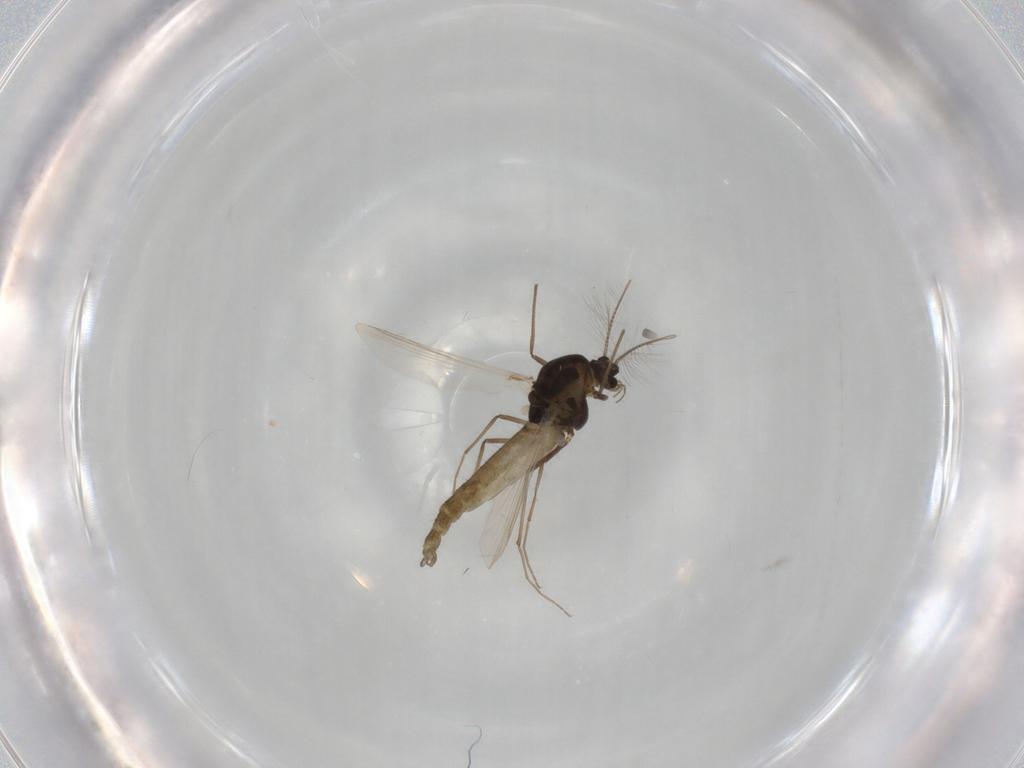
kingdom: Animalia
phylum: Arthropoda
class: Insecta
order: Diptera
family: Chironomidae
